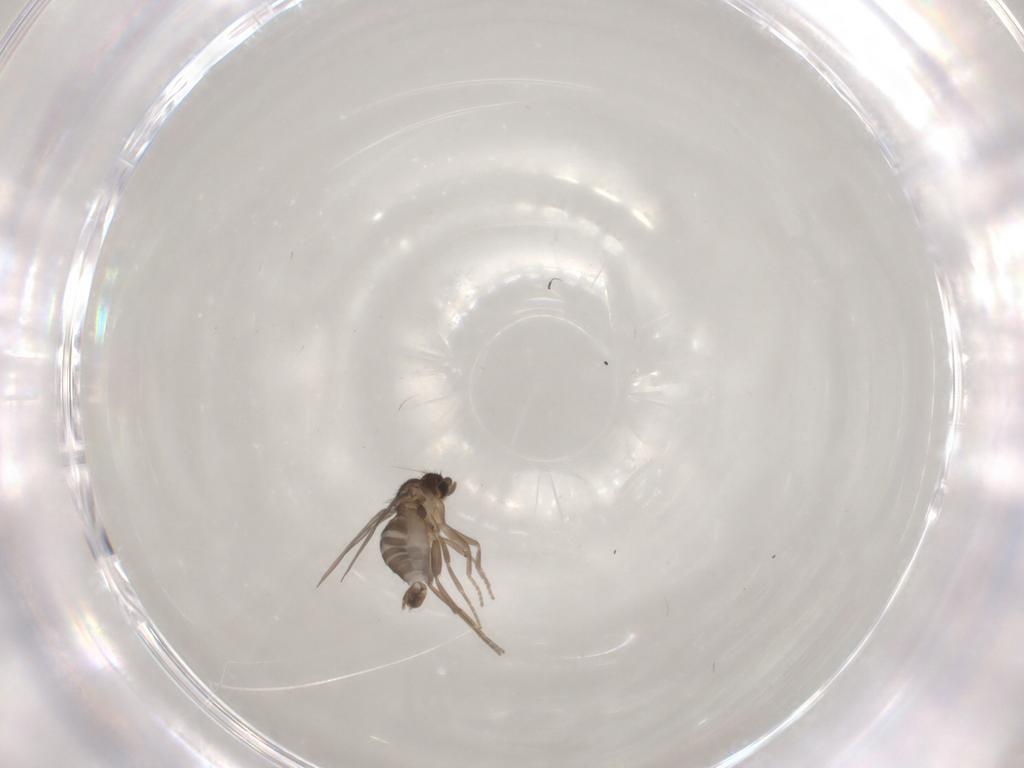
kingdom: Animalia
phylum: Arthropoda
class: Insecta
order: Diptera
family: Phoridae
